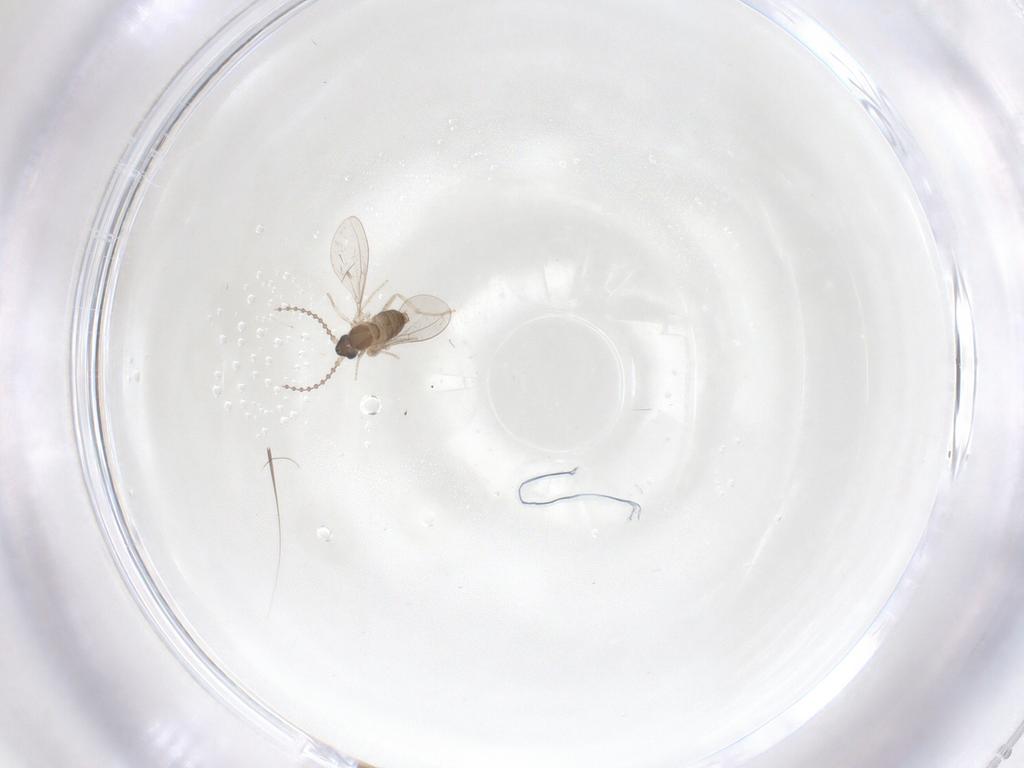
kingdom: Animalia
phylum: Arthropoda
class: Insecta
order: Diptera
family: Cecidomyiidae
